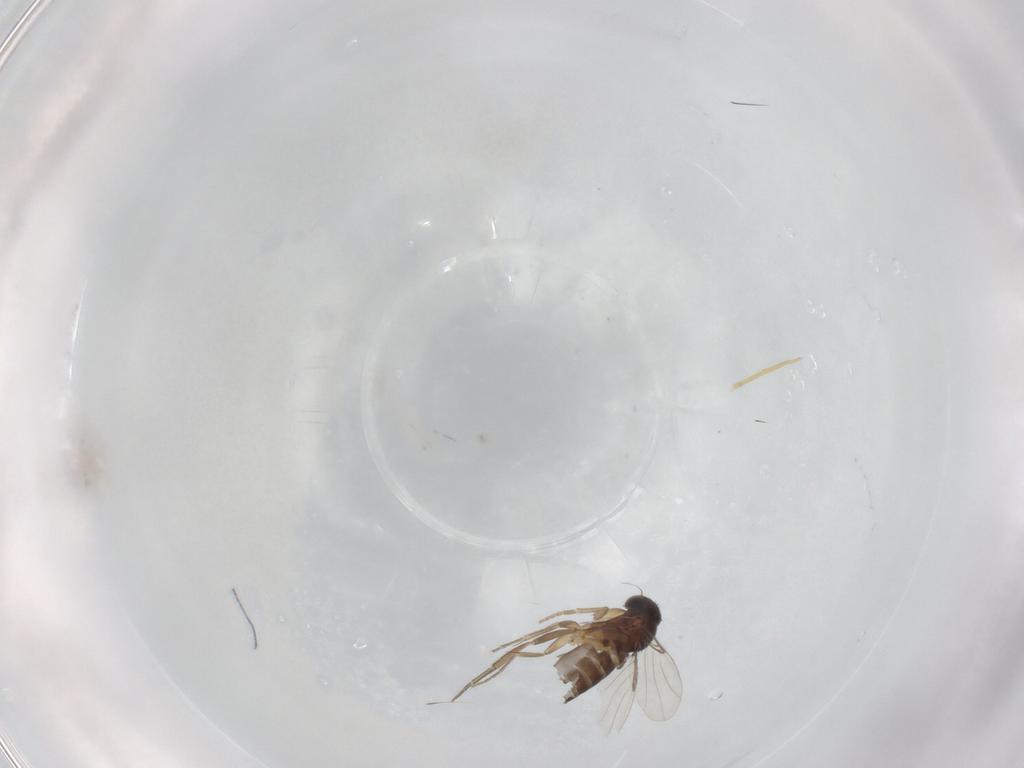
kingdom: Animalia
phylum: Arthropoda
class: Insecta
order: Diptera
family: Phoridae
